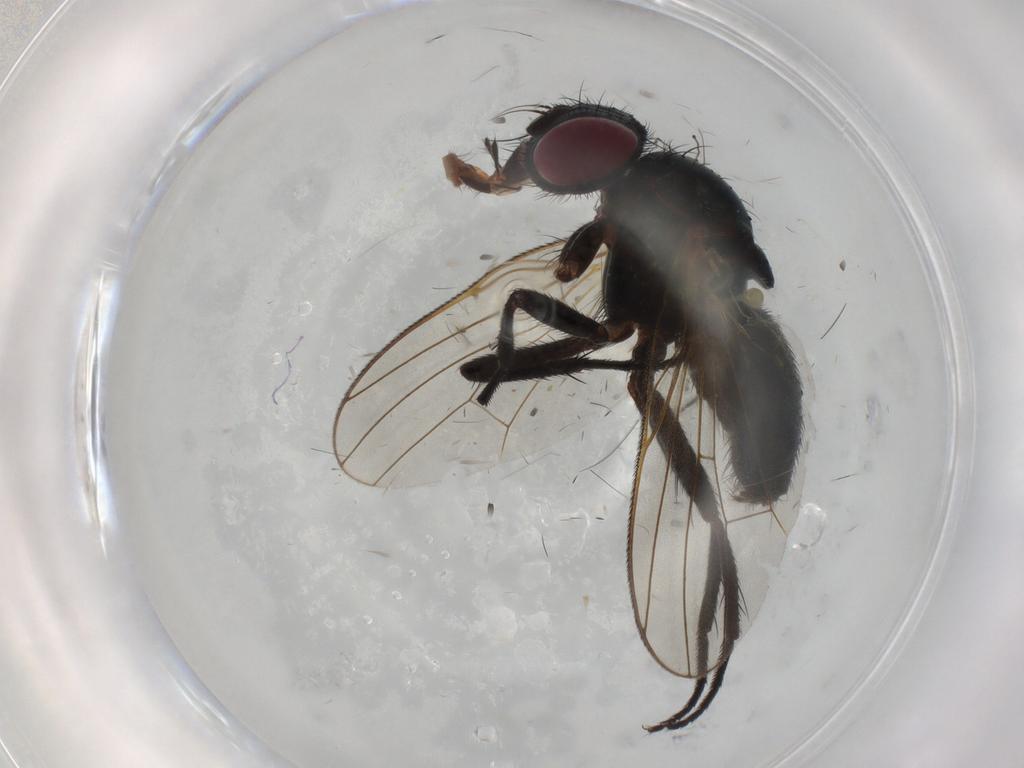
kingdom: Animalia
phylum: Arthropoda
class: Insecta
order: Diptera
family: Fannia
